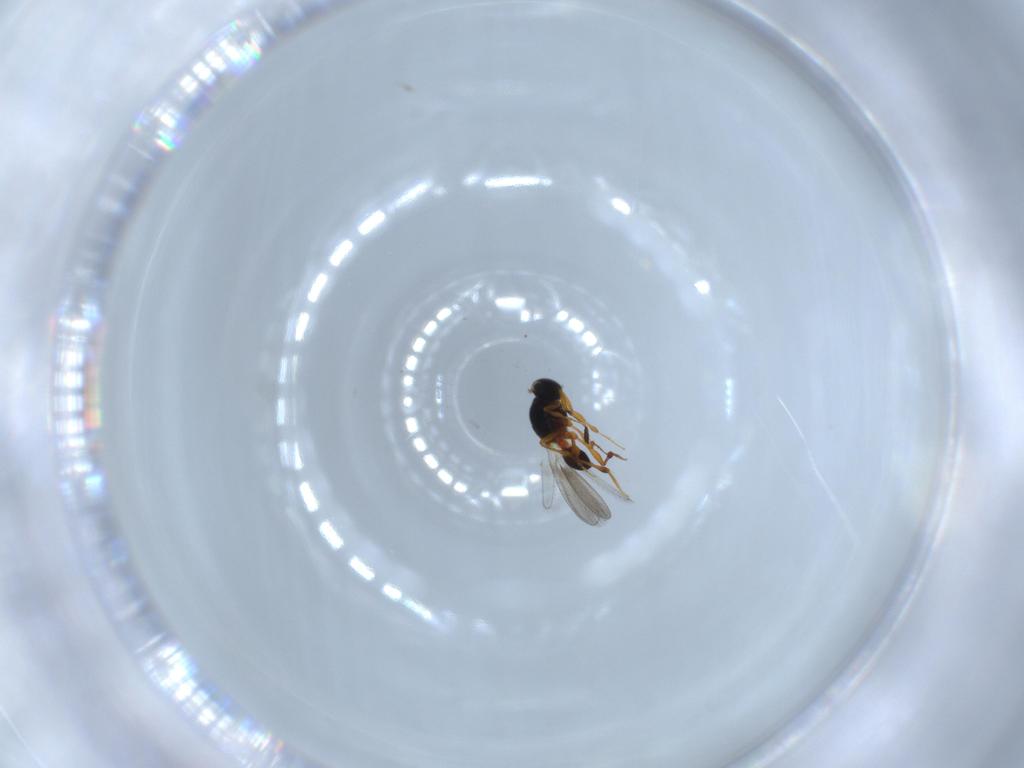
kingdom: Animalia
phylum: Arthropoda
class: Insecta
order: Hymenoptera
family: Platygastridae
